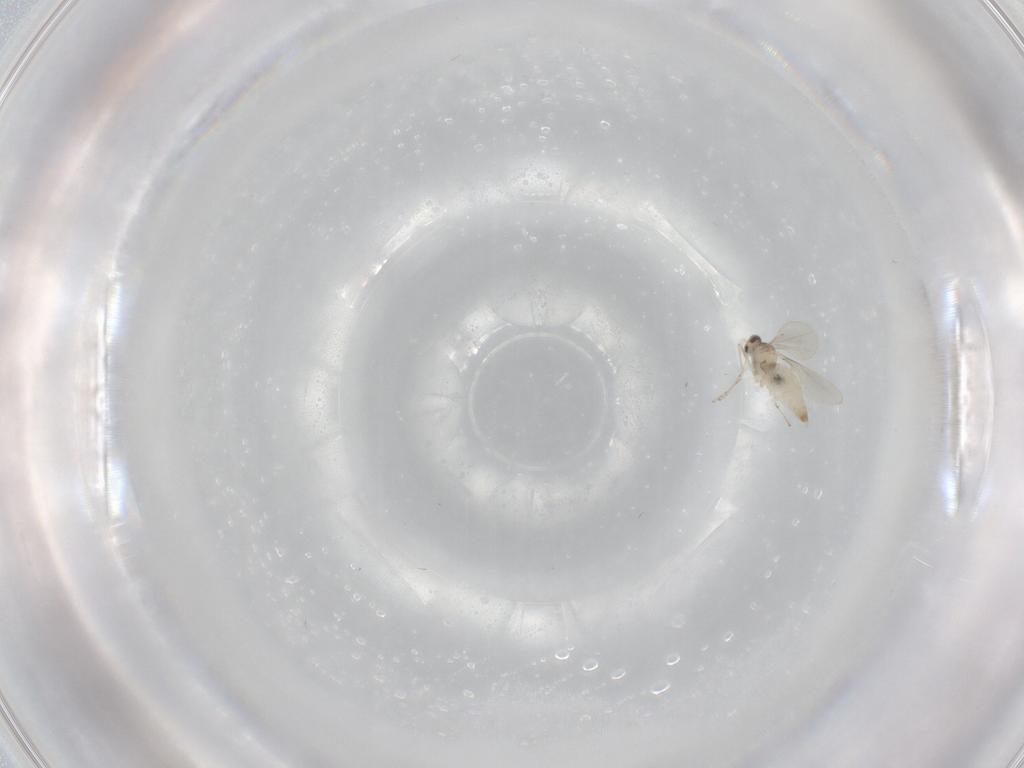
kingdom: Animalia
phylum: Arthropoda
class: Insecta
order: Diptera
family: Cecidomyiidae
